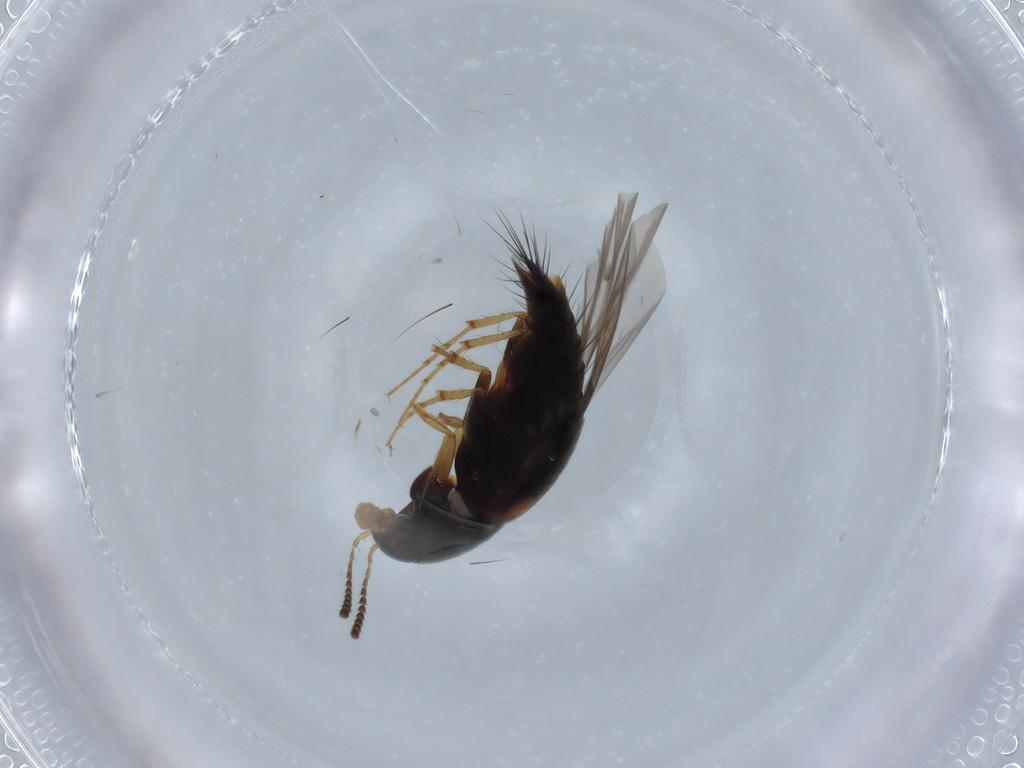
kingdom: Animalia
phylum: Arthropoda
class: Insecta
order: Coleoptera
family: Staphylinidae
